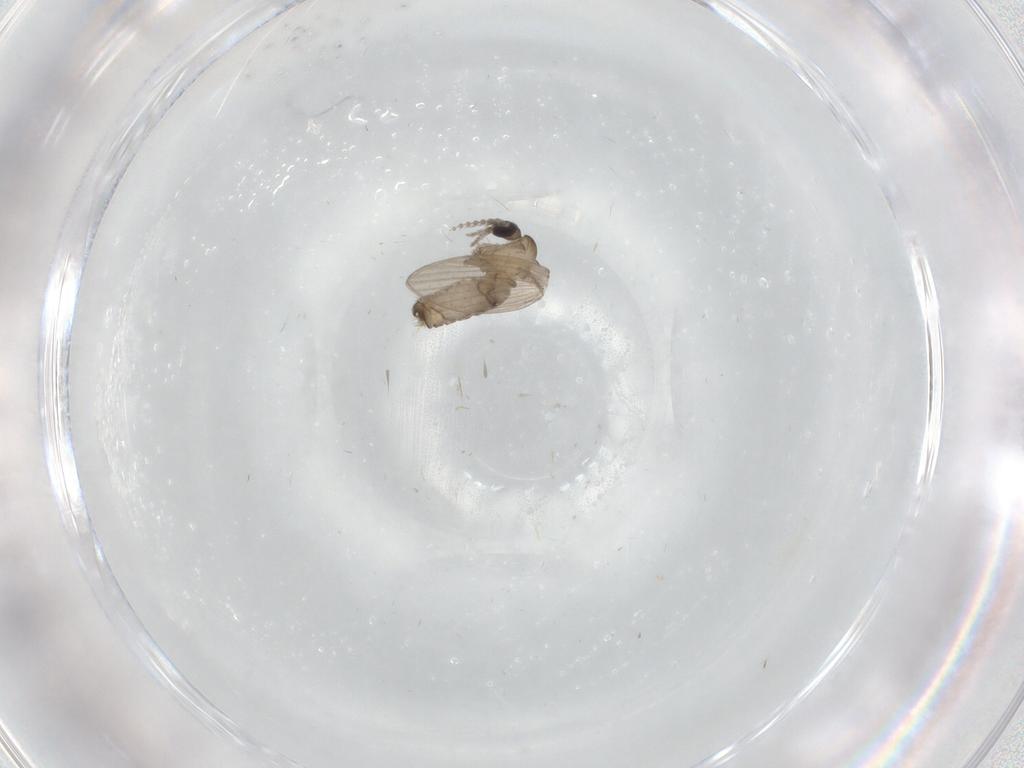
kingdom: Animalia
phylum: Arthropoda
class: Insecta
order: Diptera
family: Psychodidae
